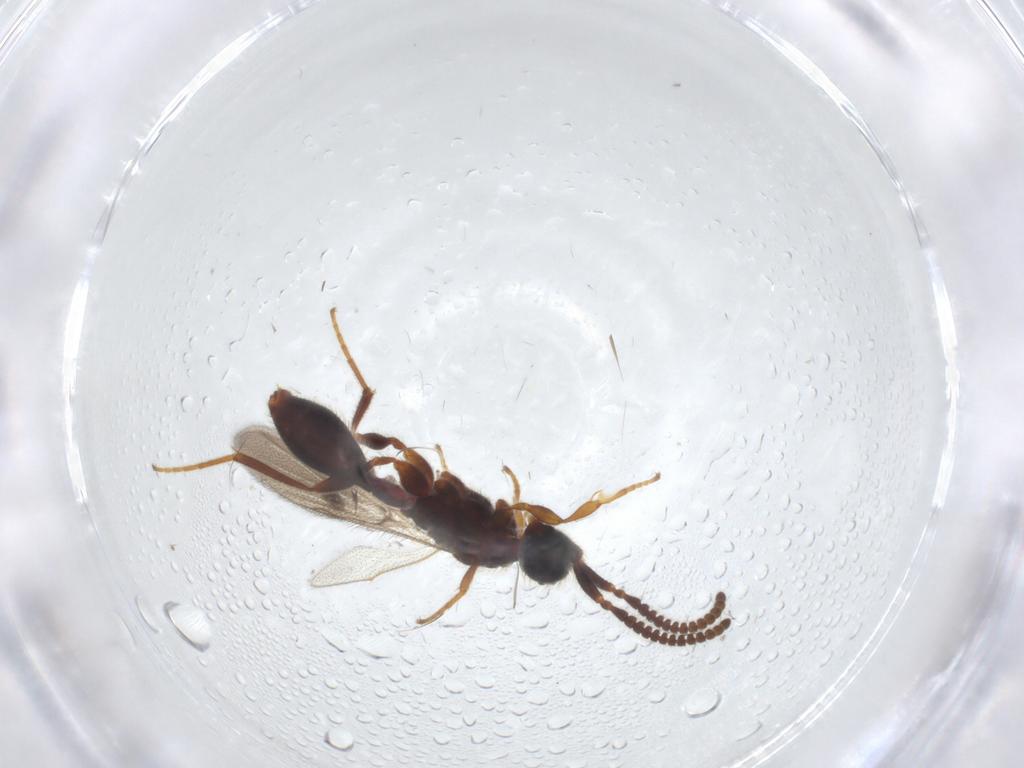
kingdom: Animalia
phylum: Arthropoda
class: Insecta
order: Hymenoptera
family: Diapriidae
